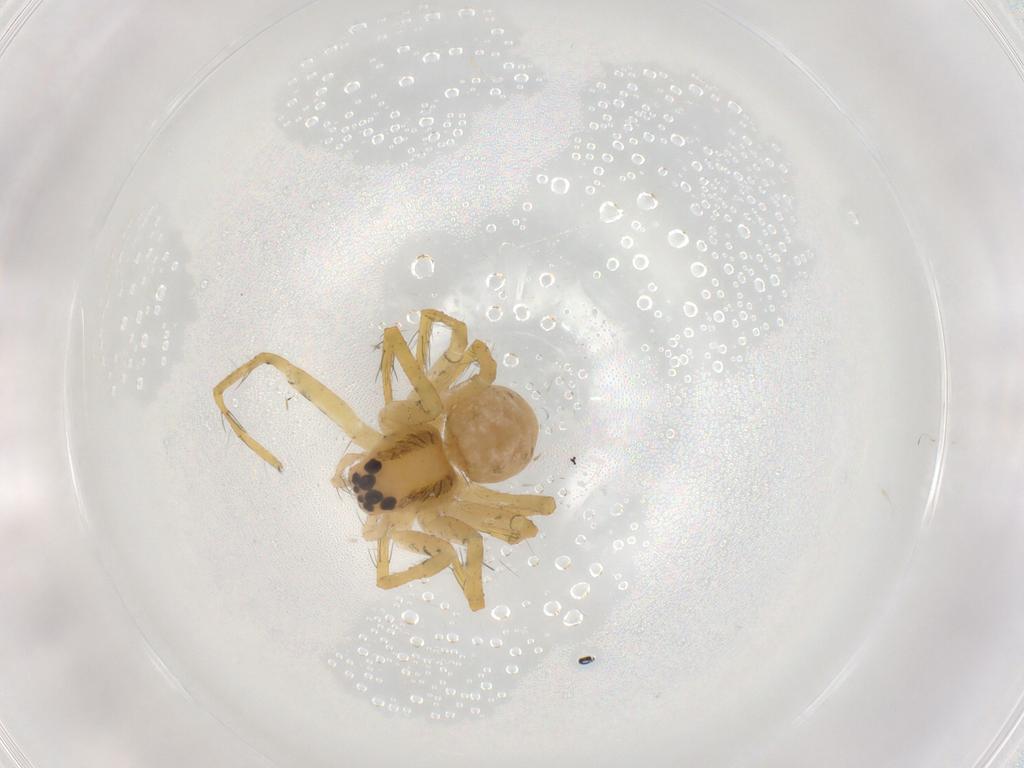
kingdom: Animalia
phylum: Arthropoda
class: Arachnida
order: Araneae
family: Pisauridae
